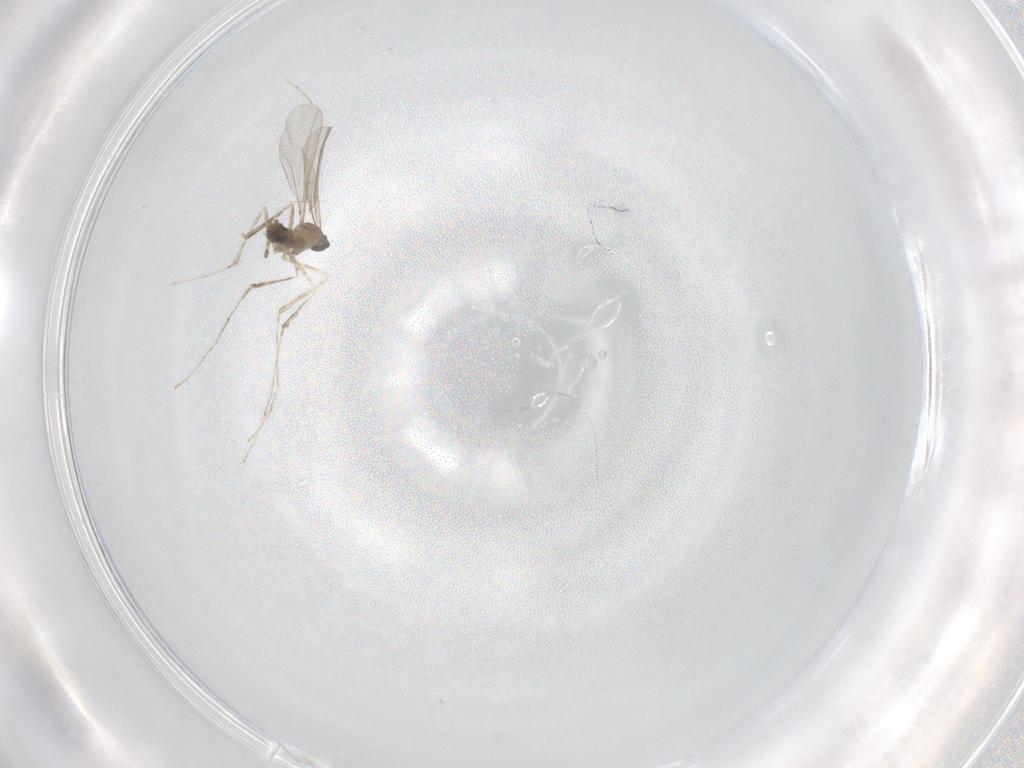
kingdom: Animalia
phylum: Arthropoda
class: Insecta
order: Diptera
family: Cecidomyiidae
